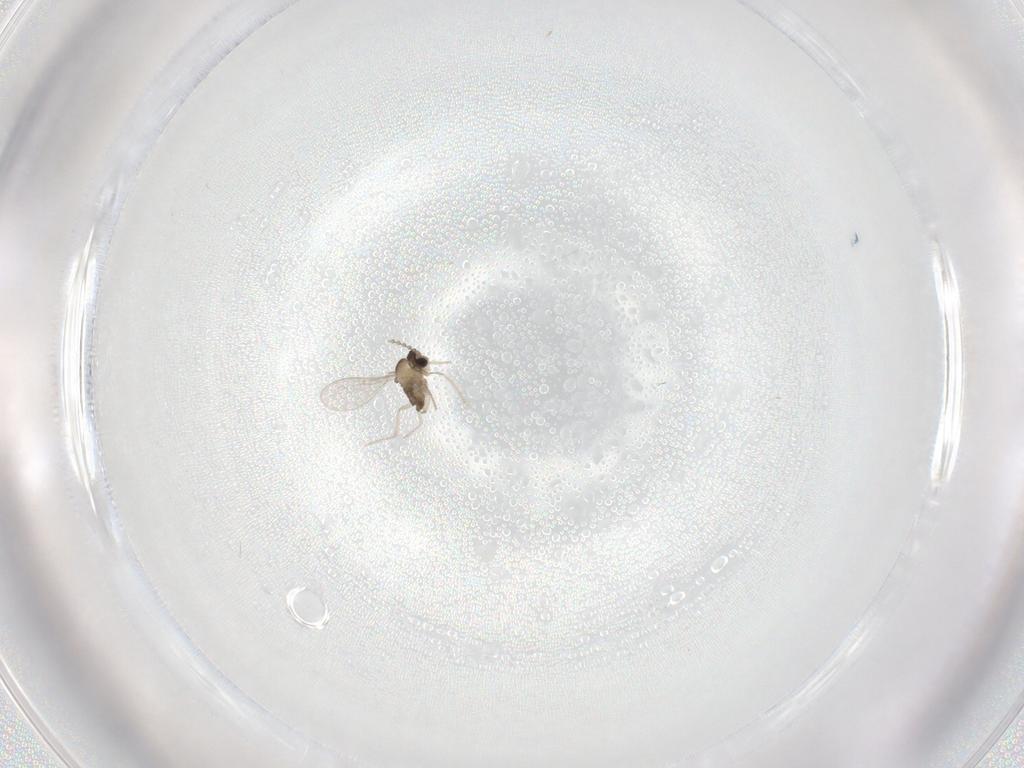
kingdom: Animalia
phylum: Arthropoda
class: Insecta
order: Diptera
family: Cecidomyiidae
